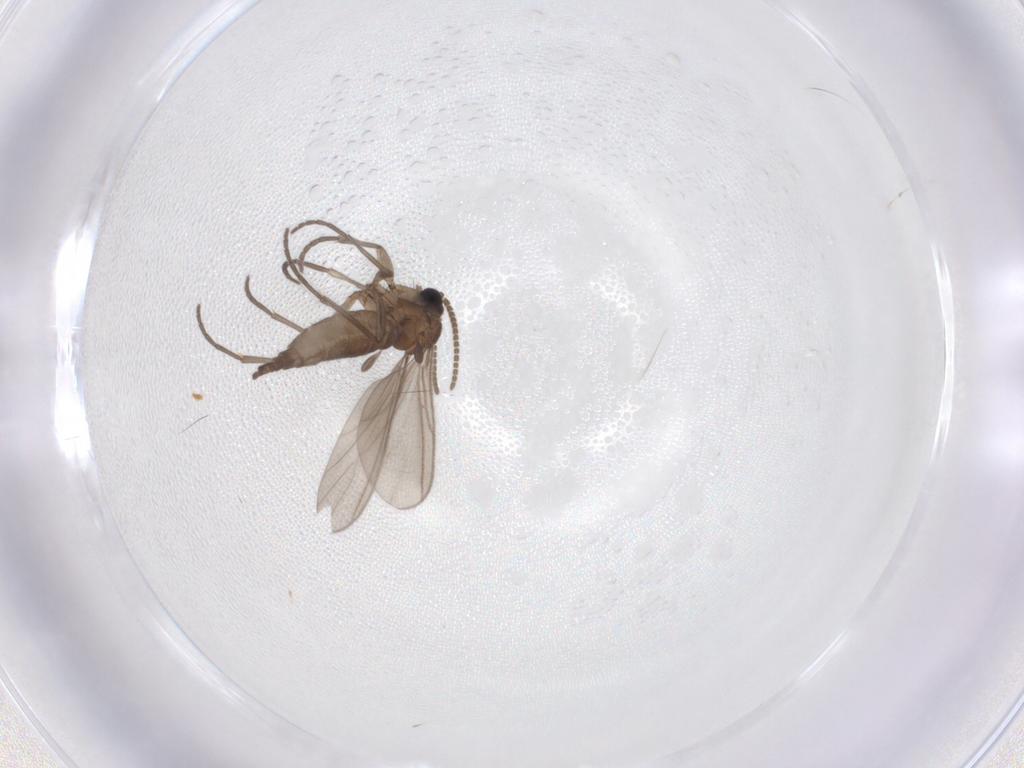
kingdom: Animalia
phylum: Arthropoda
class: Insecta
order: Diptera
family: Sciaridae
